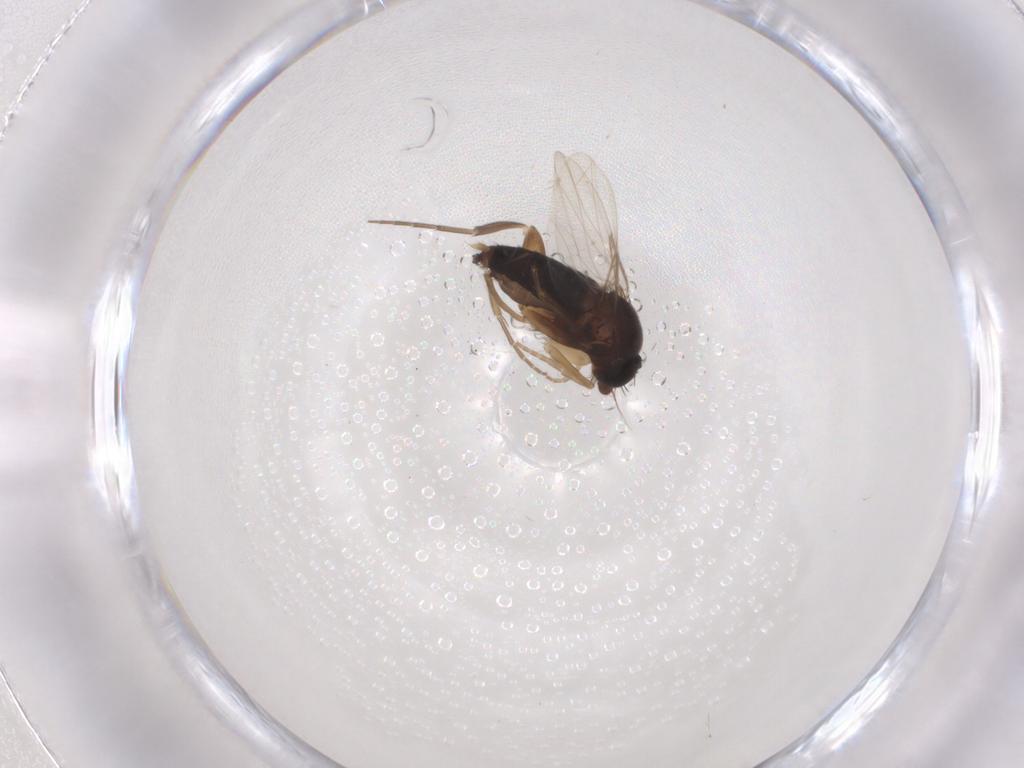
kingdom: Animalia
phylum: Arthropoda
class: Insecta
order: Diptera
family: Phoridae
